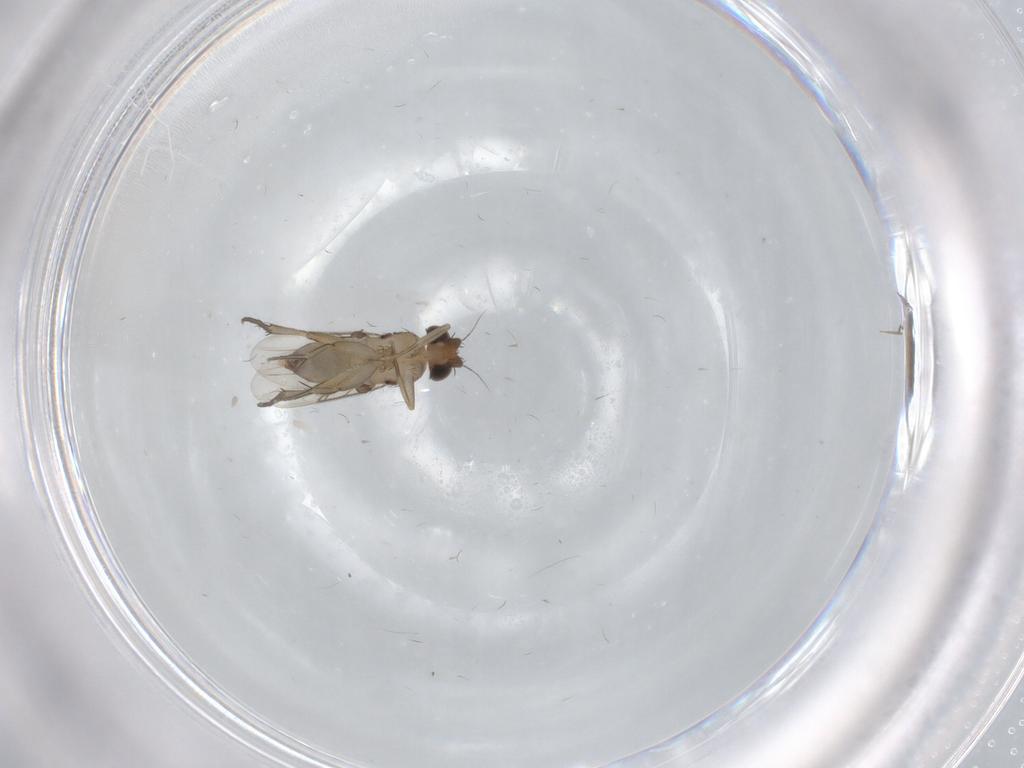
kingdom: Animalia
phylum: Arthropoda
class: Insecta
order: Diptera
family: Phoridae
